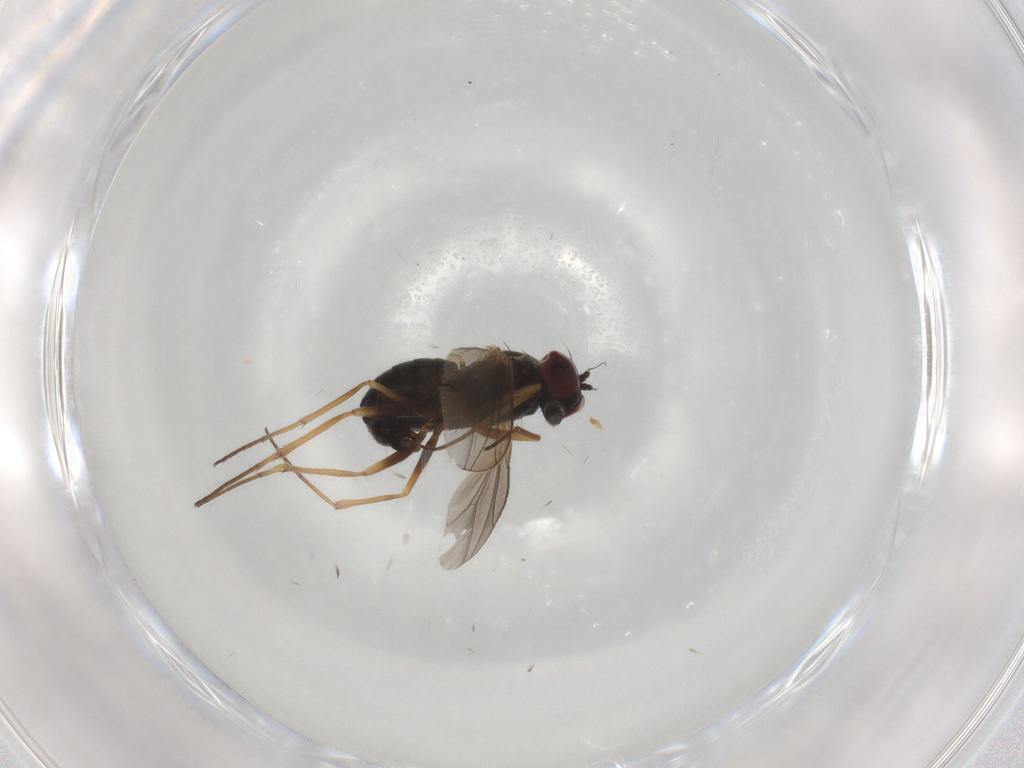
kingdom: Animalia
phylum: Arthropoda
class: Insecta
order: Diptera
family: Dolichopodidae
